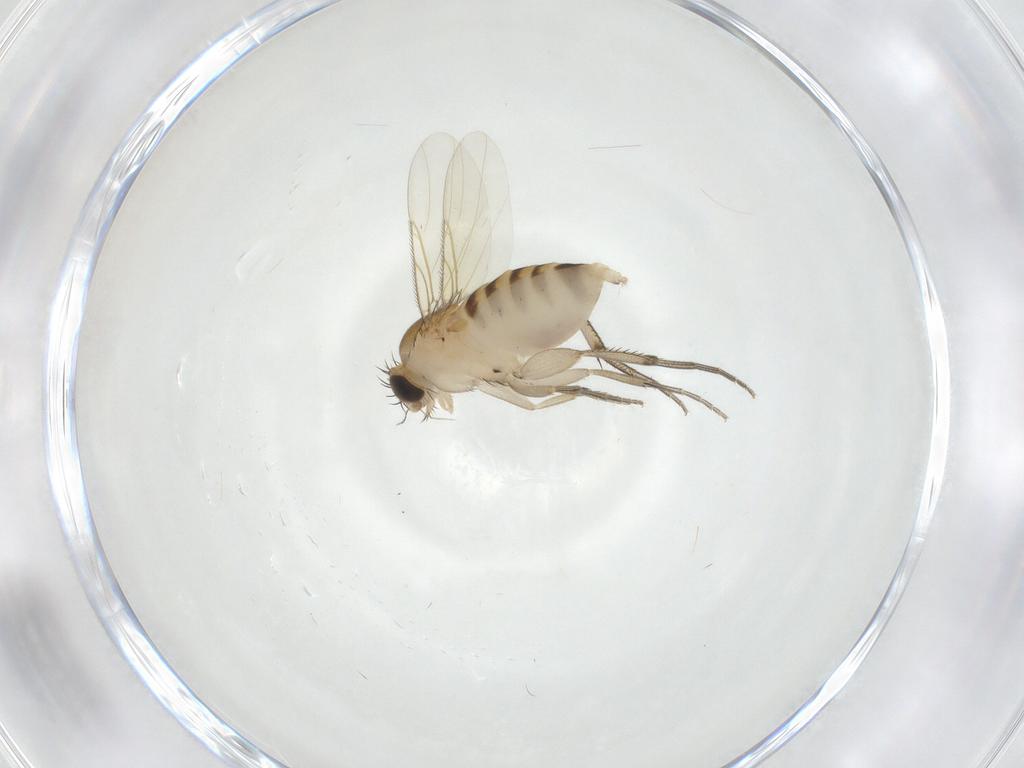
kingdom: Animalia
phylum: Arthropoda
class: Insecta
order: Diptera
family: Phoridae
